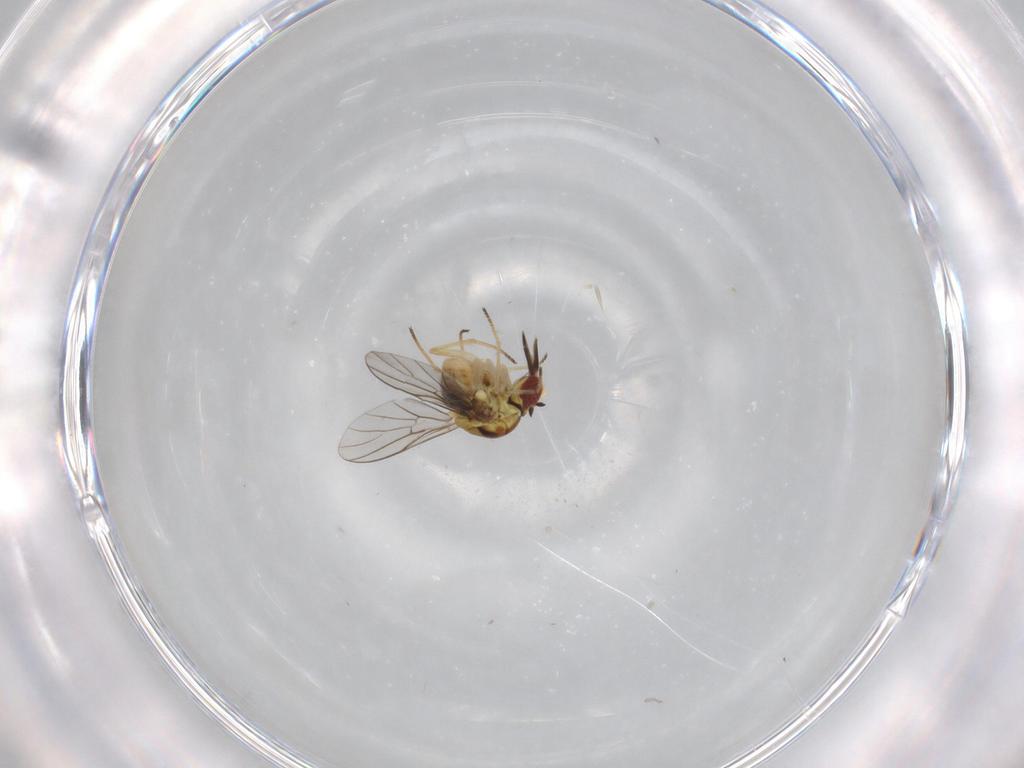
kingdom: Animalia
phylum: Arthropoda
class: Insecta
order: Diptera
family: Bombyliidae
